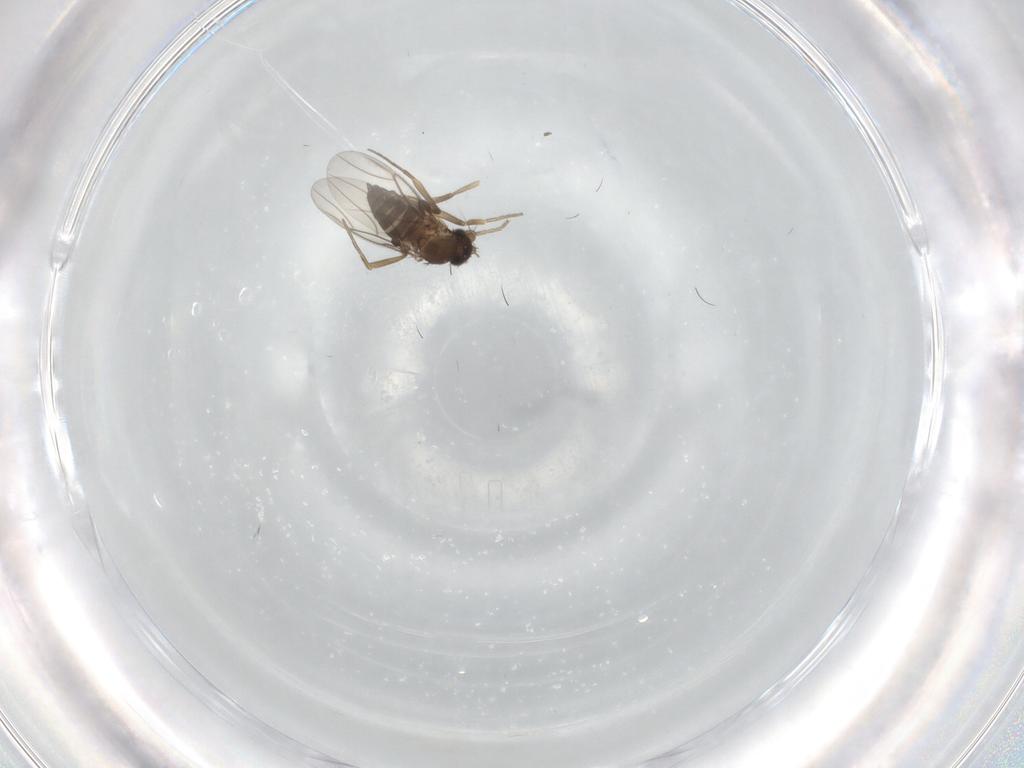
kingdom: Animalia
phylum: Arthropoda
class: Insecta
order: Diptera
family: Phoridae
